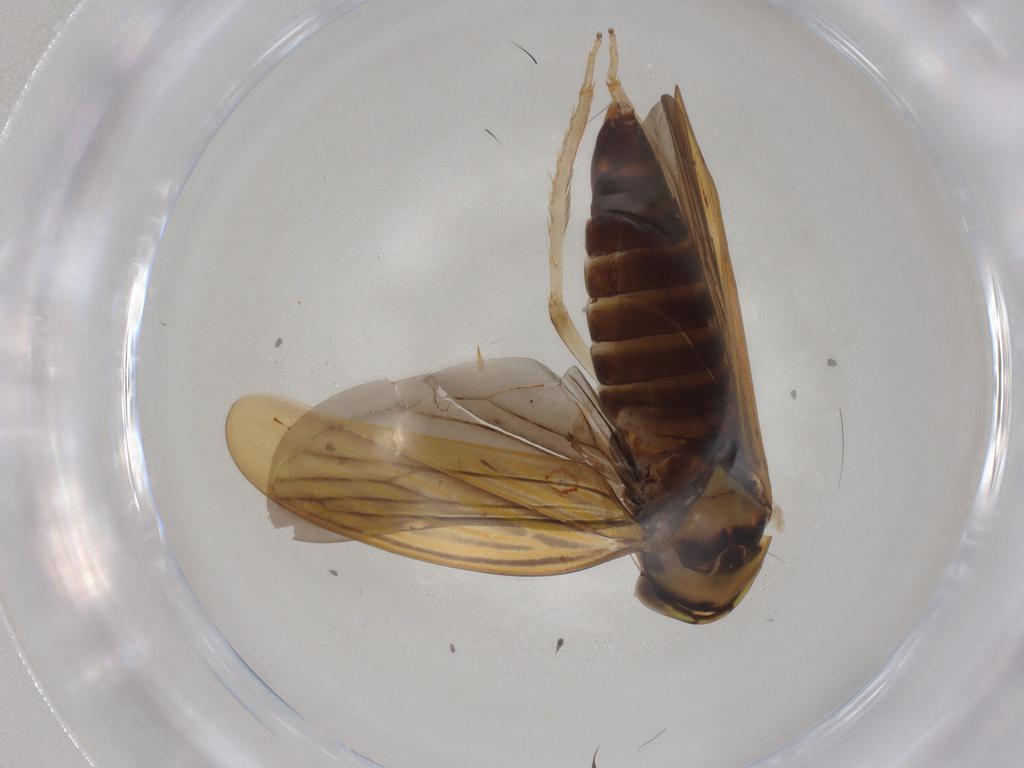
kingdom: Animalia
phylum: Arthropoda
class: Insecta
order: Hemiptera
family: Cicadellidae
